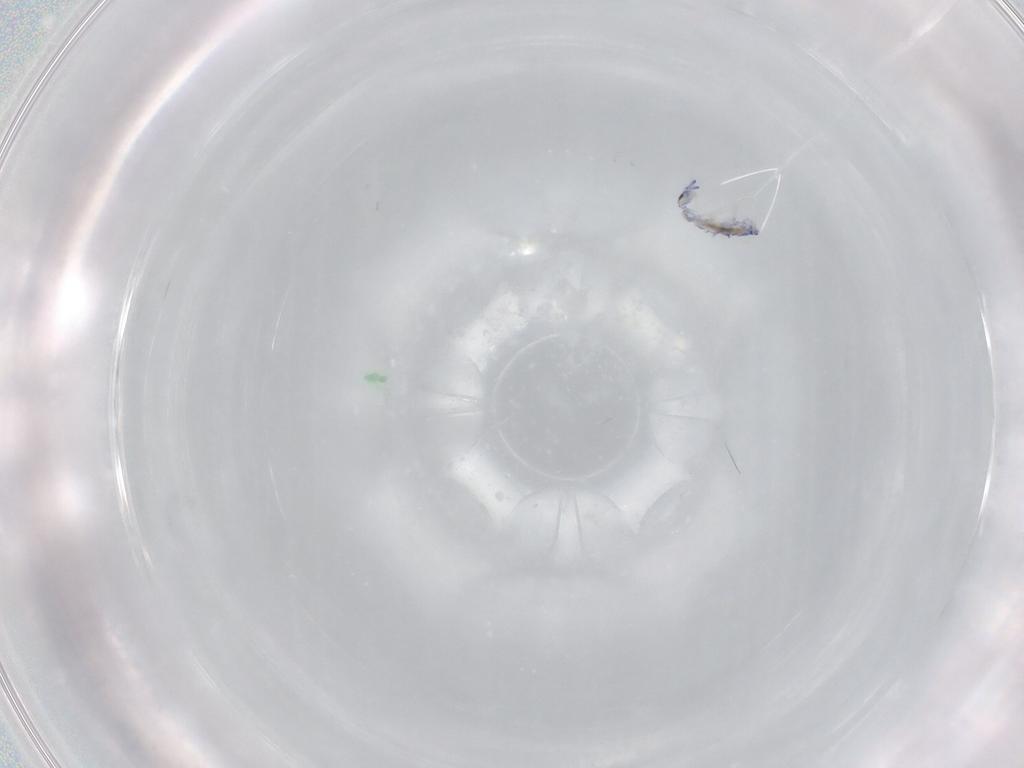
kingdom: Animalia
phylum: Arthropoda
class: Collembola
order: Entomobryomorpha
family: Entomobryidae
